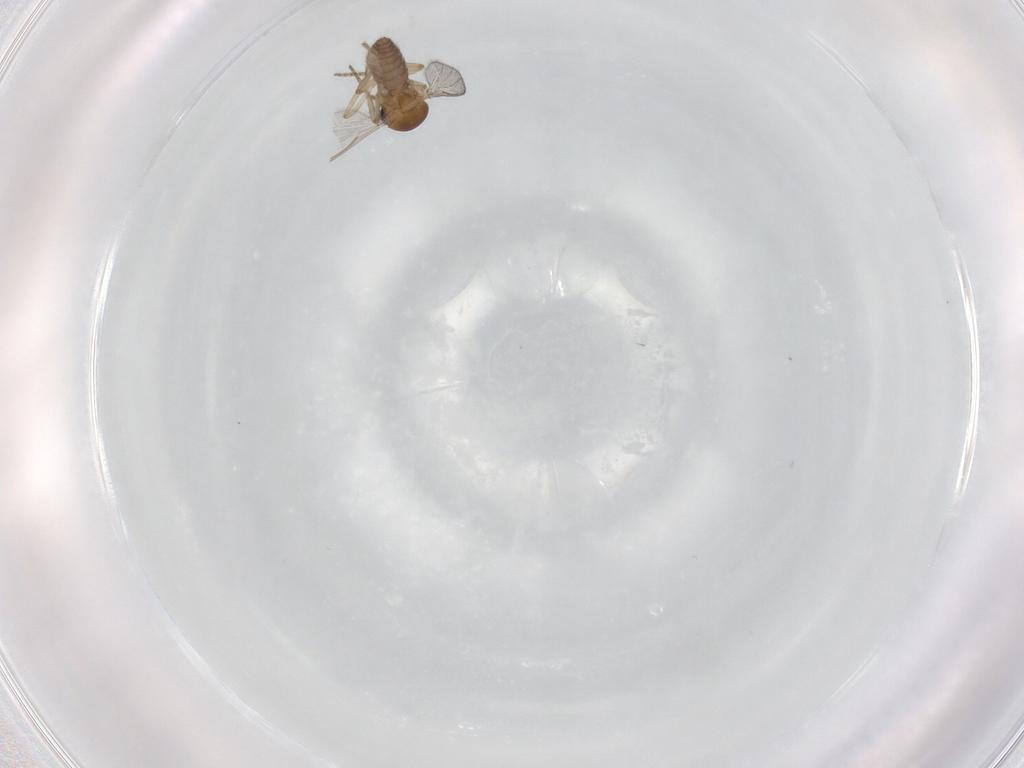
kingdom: Animalia
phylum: Arthropoda
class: Insecta
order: Diptera
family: Ceratopogonidae
